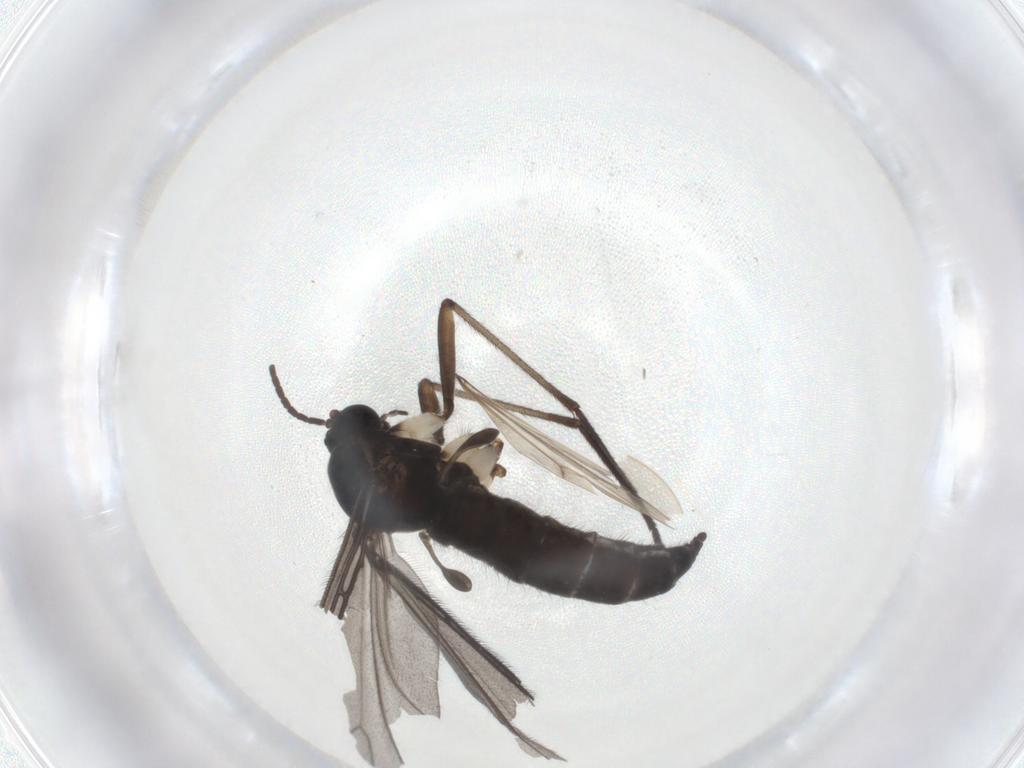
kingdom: Animalia
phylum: Arthropoda
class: Insecta
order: Diptera
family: Sciaridae
